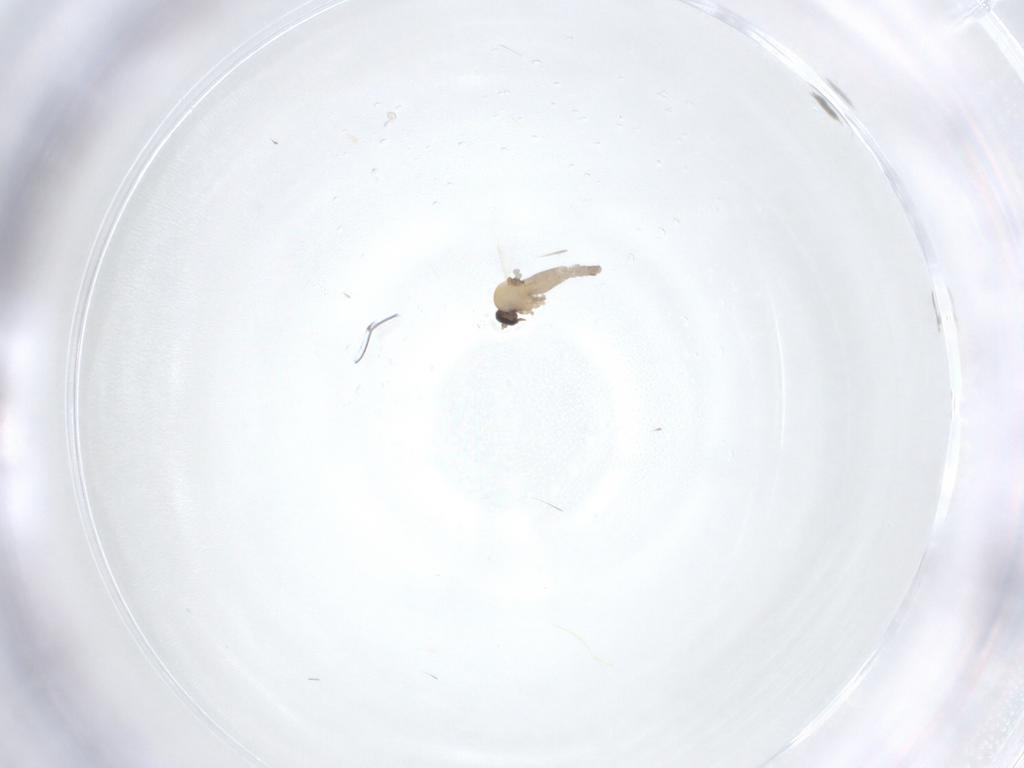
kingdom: Animalia
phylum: Arthropoda
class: Insecta
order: Diptera
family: Ceratopogonidae
